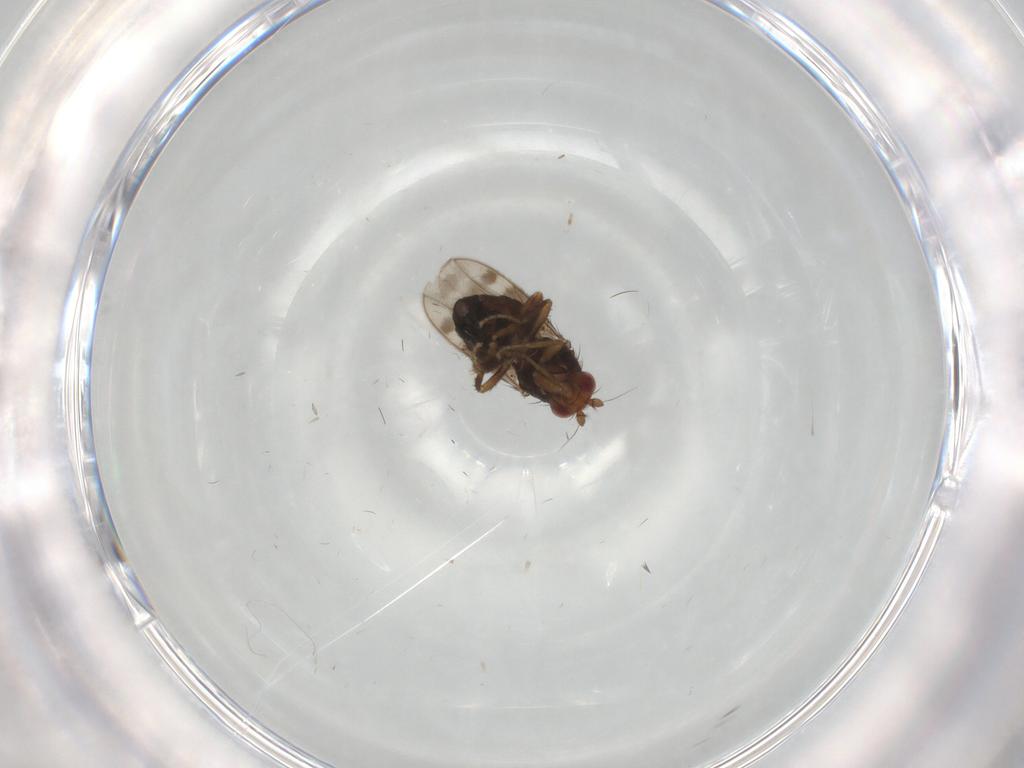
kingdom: Animalia
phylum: Arthropoda
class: Insecta
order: Diptera
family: Sphaeroceridae
